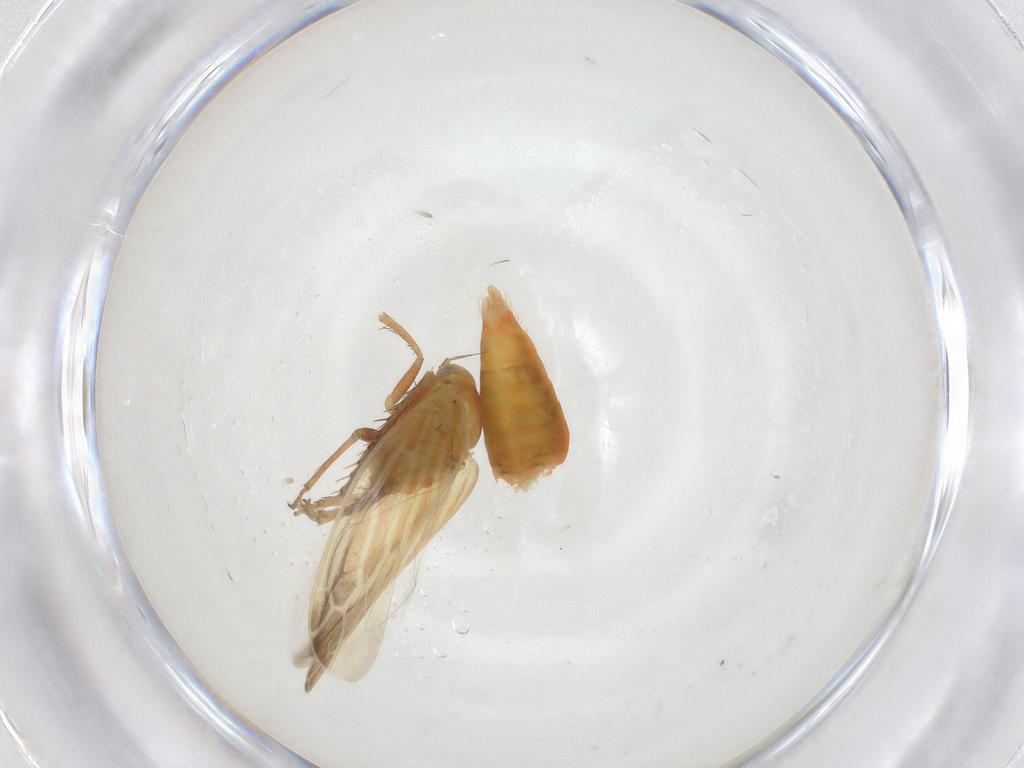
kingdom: Animalia
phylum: Arthropoda
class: Insecta
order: Hemiptera
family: Cicadellidae
